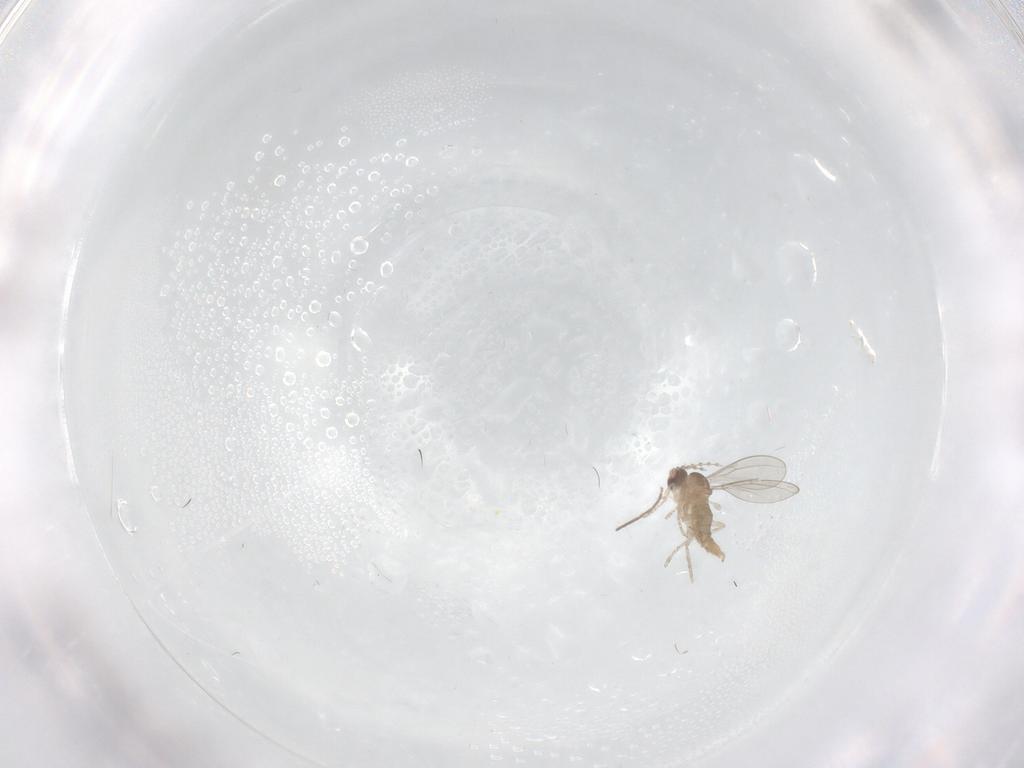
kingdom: Animalia
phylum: Arthropoda
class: Insecta
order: Diptera
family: Cecidomyiidae
